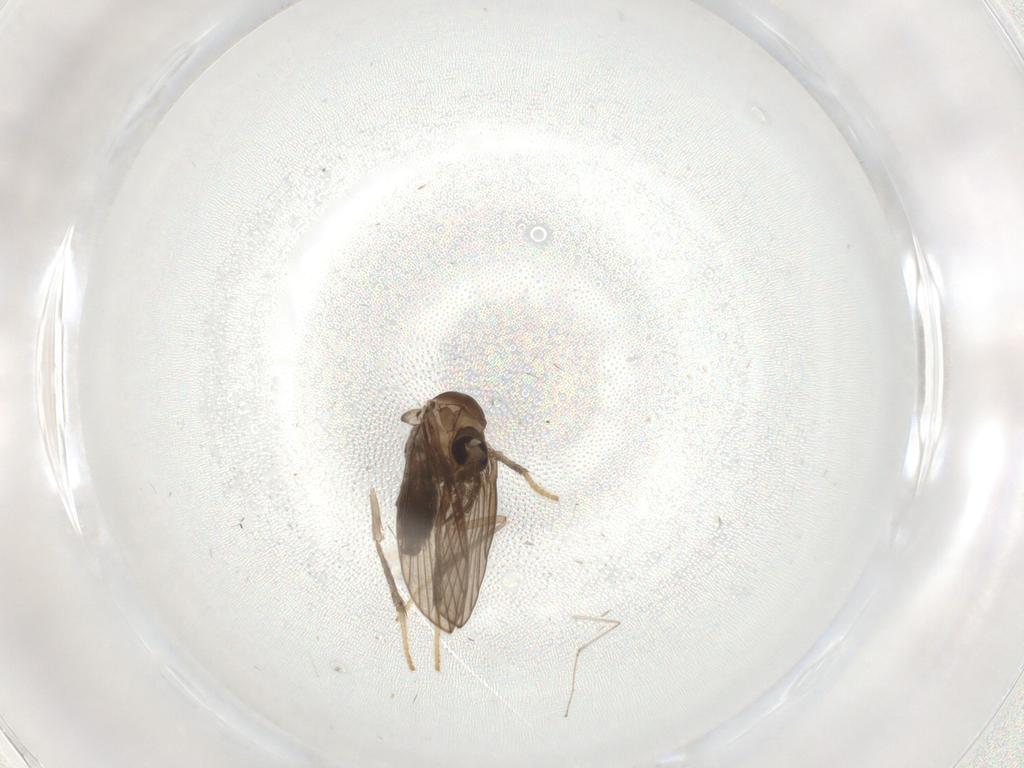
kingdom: Animalia
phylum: Arthropoda
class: Insecta
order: Diptera
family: Psychodidae
